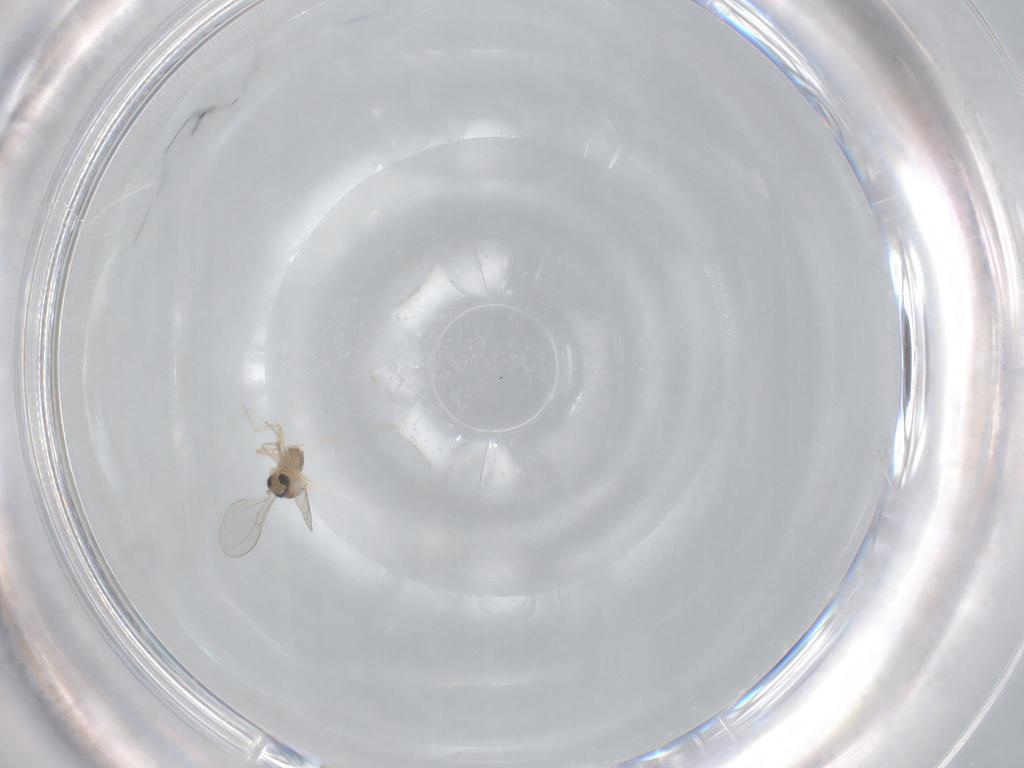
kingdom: Animalia
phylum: Arthropoda
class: Insecta
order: Diptera
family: Cecidomyiidae
